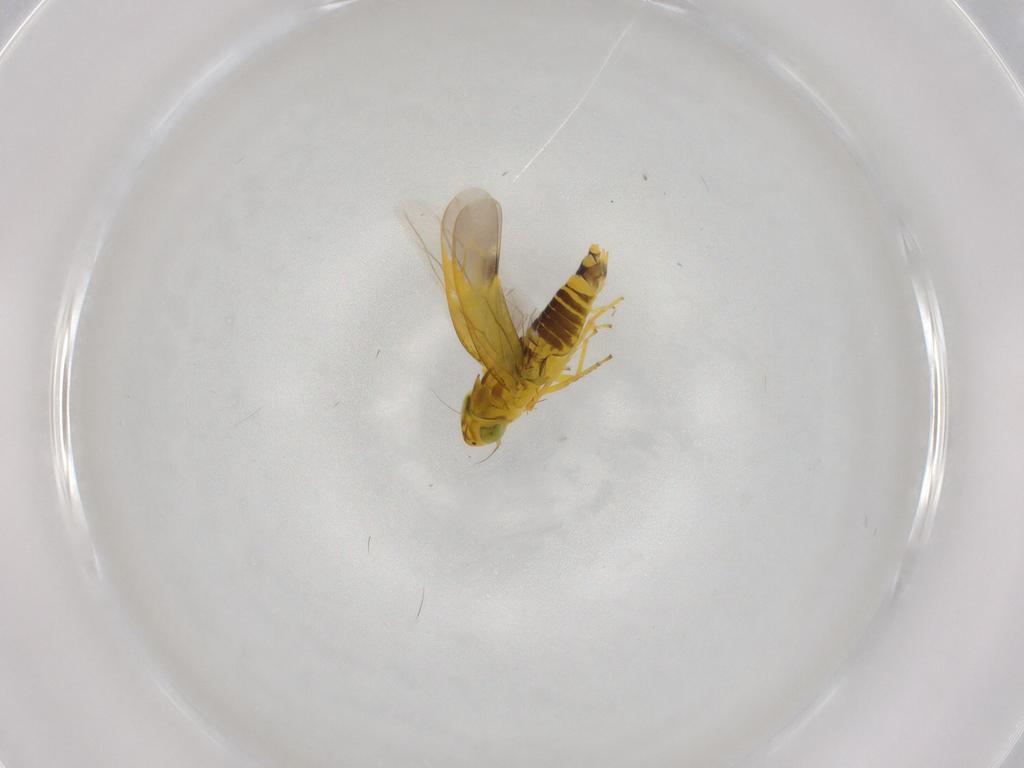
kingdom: Animalia
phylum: Arthropoda
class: Insecta
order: Hemiptera
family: Cicadellidae
